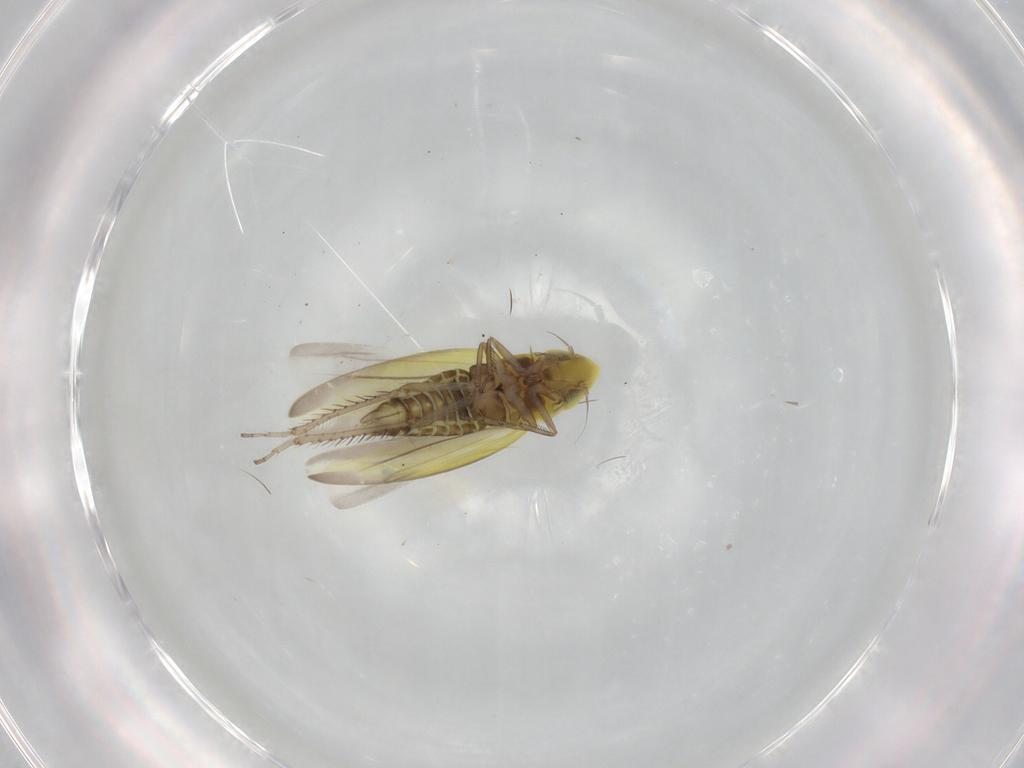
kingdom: Animalia
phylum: Arthropoda
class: Insecta
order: Hemiptera
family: Cicadellidae
